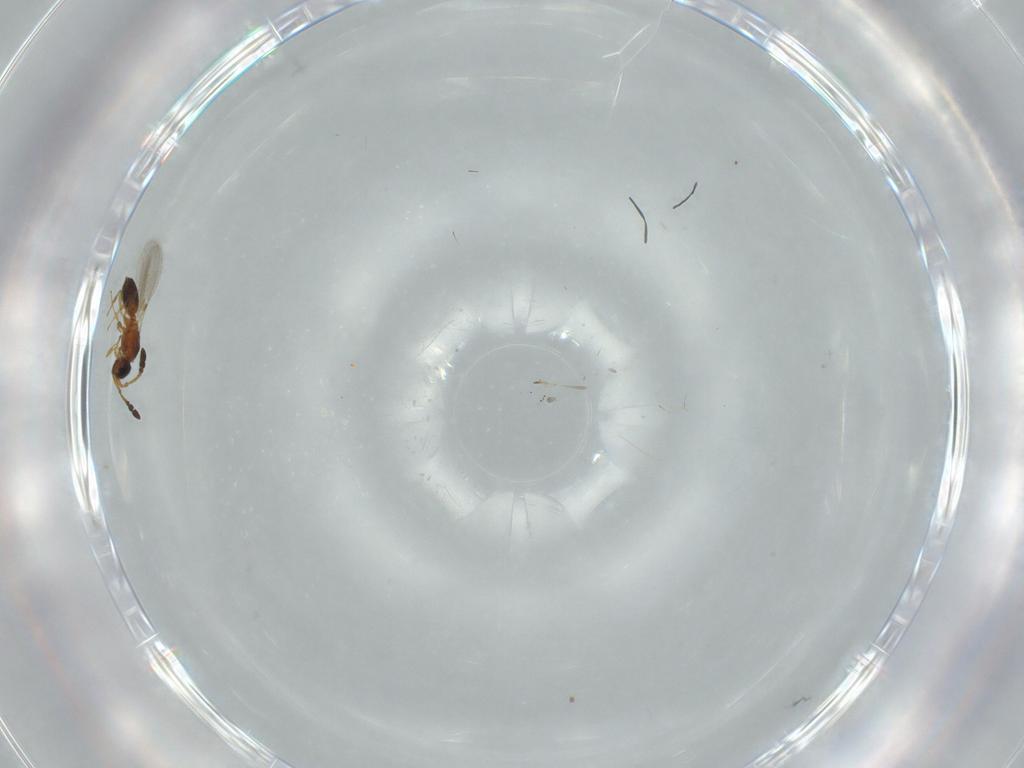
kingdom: Animalia
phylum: Arthropoda
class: Insecta
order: Hymenoptera
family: Diapriidae
